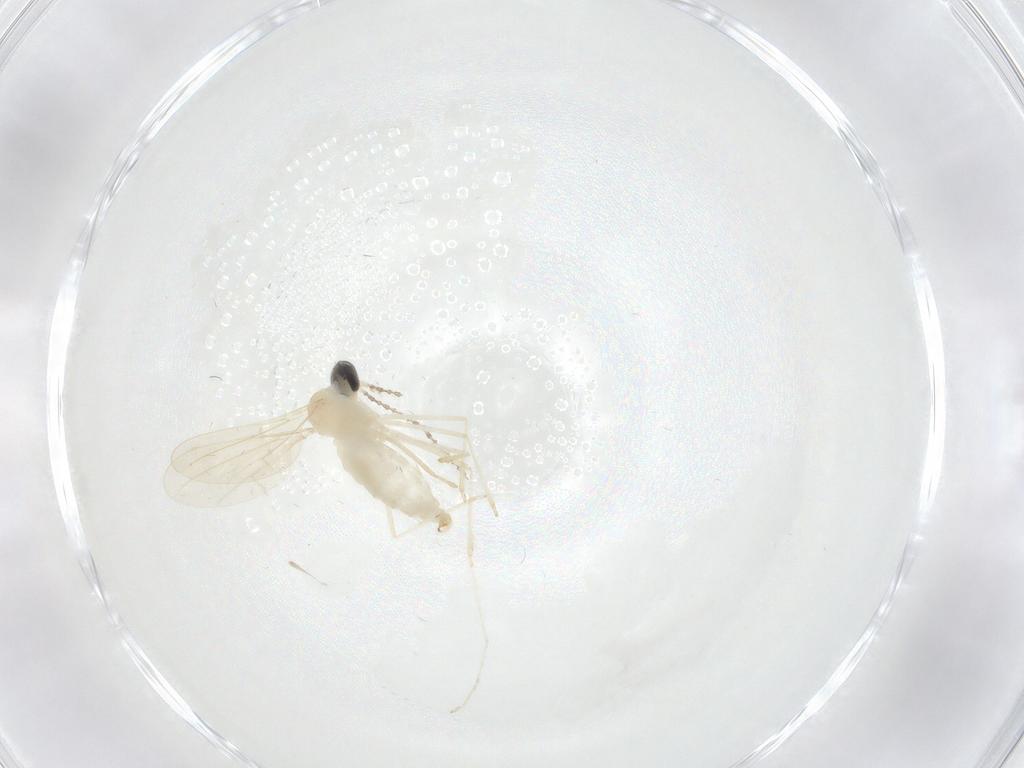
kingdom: Animalia
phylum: Arthropoda
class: Insecta
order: Diptera
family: Cecidomyiidae
